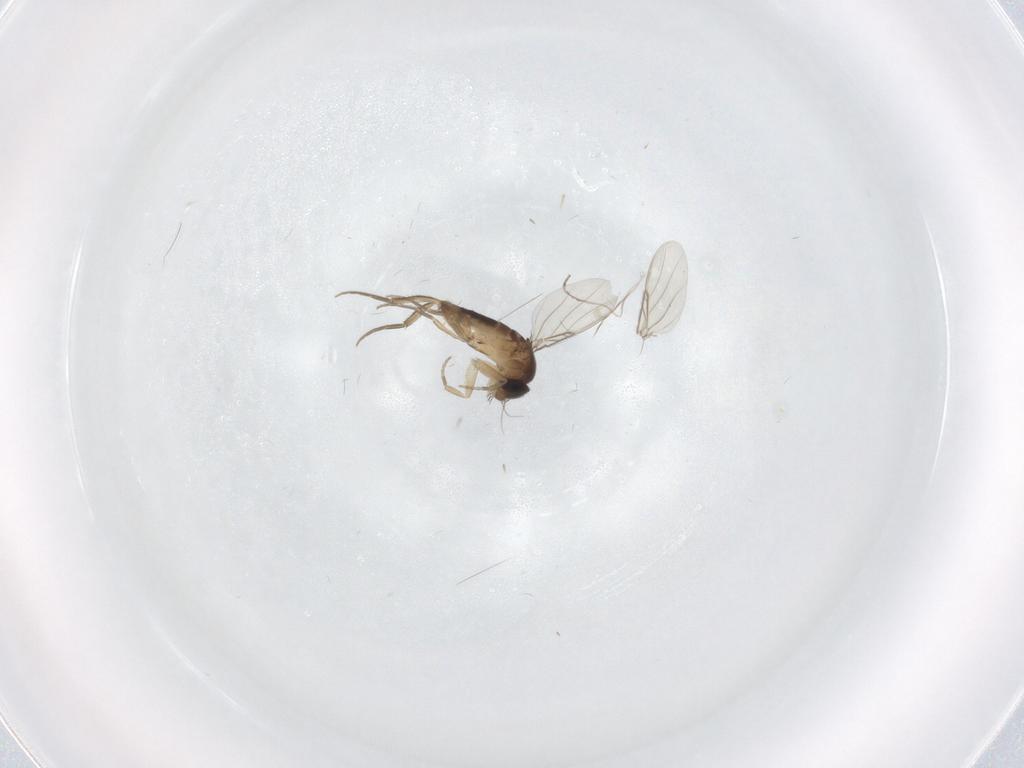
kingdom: Animalia
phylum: Arthropoda
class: Insecta
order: Diptera
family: Phoridae
